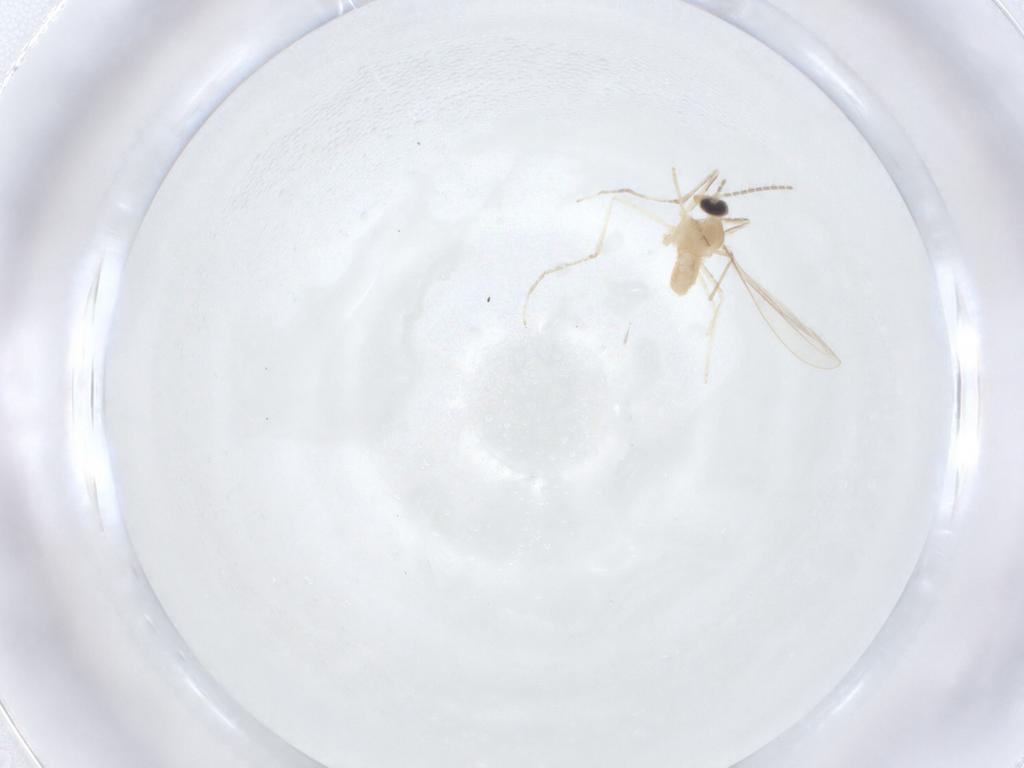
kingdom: Animalia
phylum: Arthropoda
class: Insecta
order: Diptera
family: Cecidomyiidae
